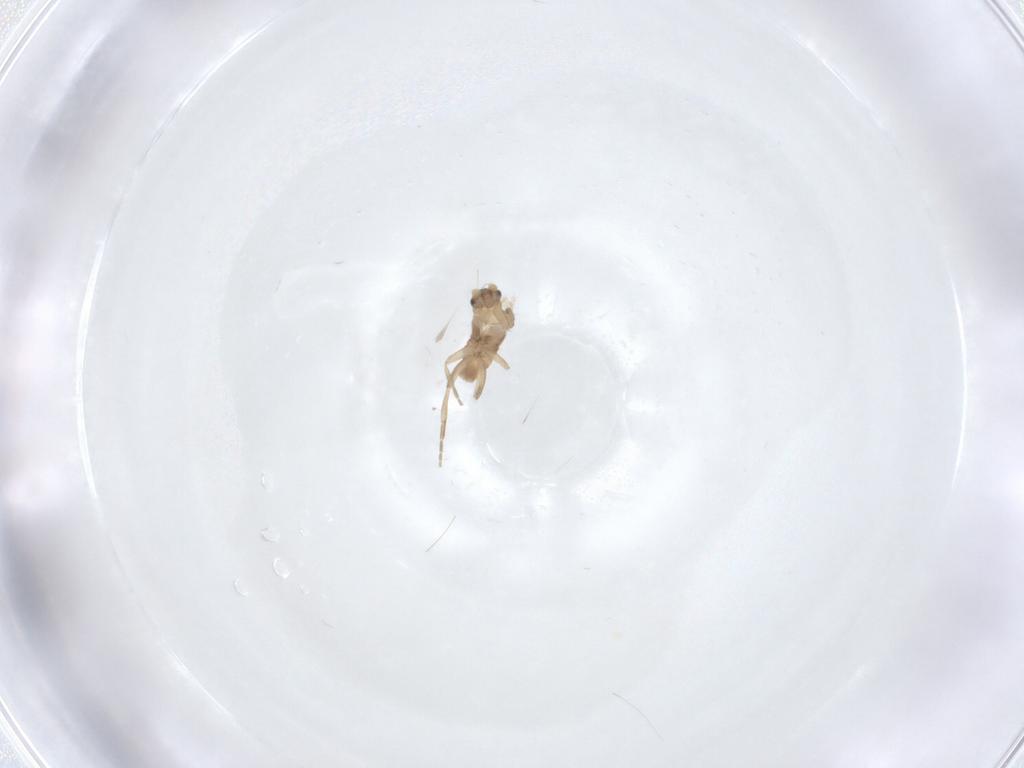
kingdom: Animalia
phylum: Arthropoda
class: Insecta
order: Diptera
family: Phoridae
